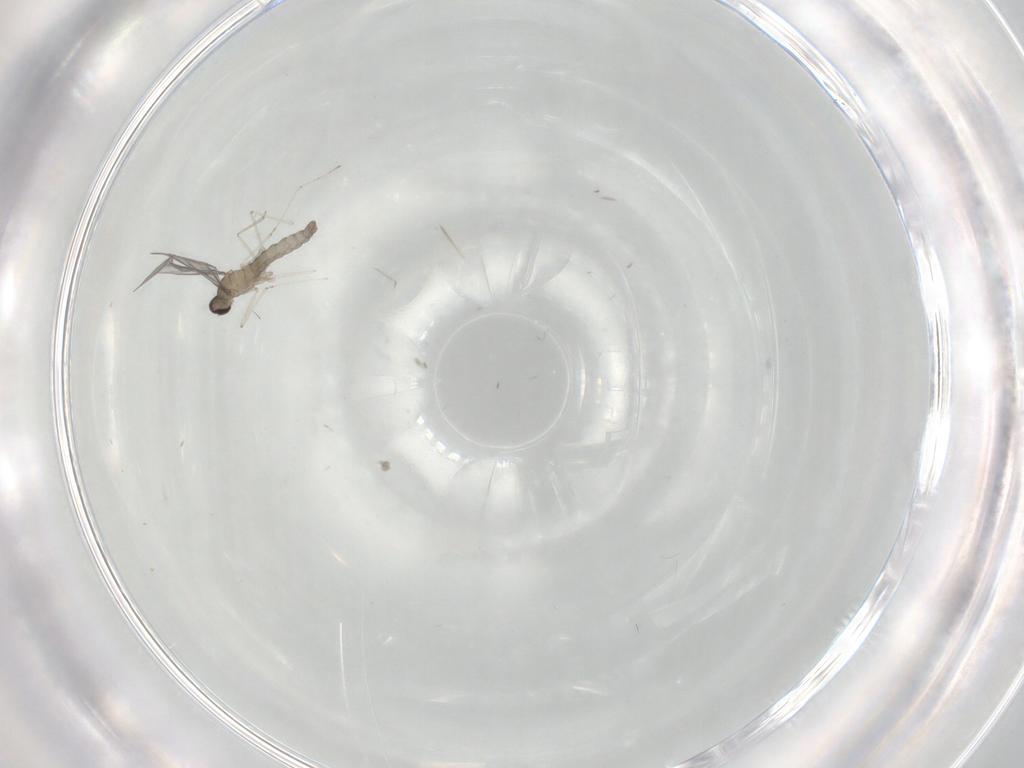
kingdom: Animalia
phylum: Arthropoda
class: Insecta
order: Diptera
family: Cecidomyiidae
